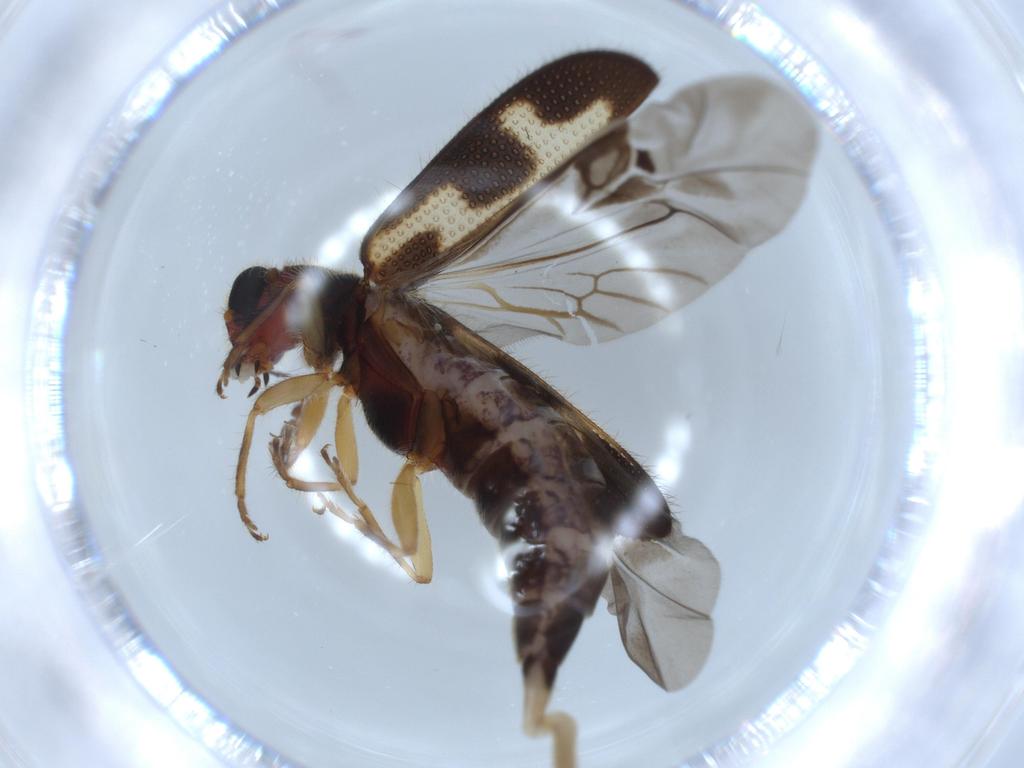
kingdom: Animalia
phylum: Arthropoda
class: Insecta
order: Coleoptera
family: Cleridae
